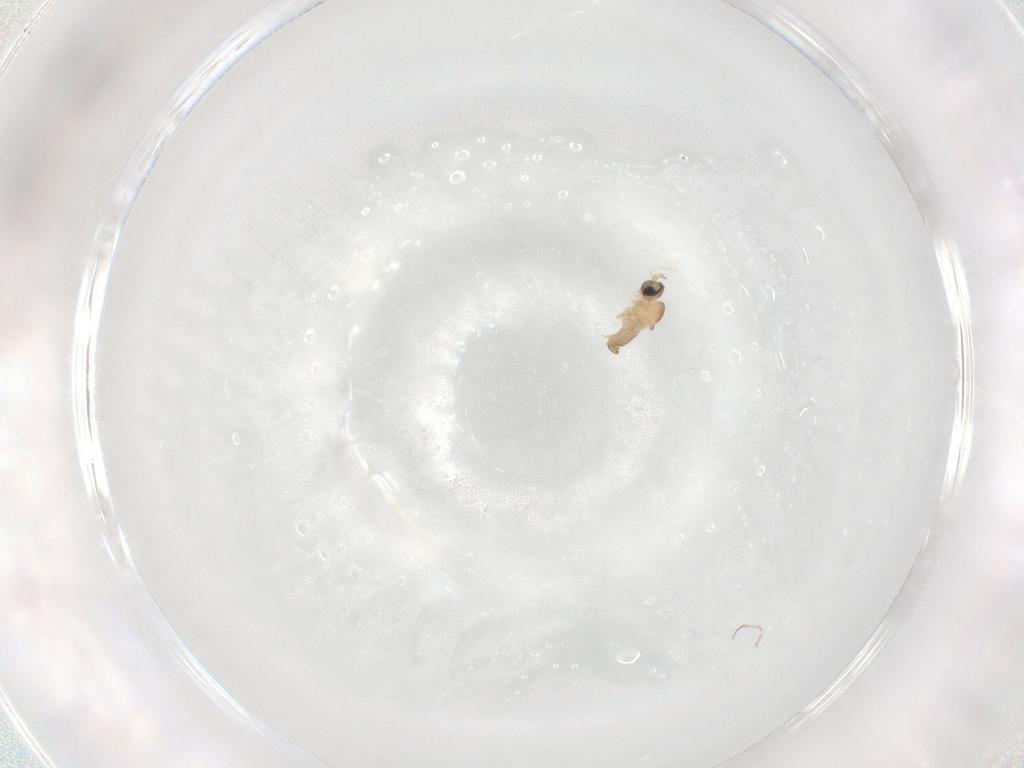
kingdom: Animalia
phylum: Arthropoda
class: Insecta
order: Diptera
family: Cecidomyiidae
